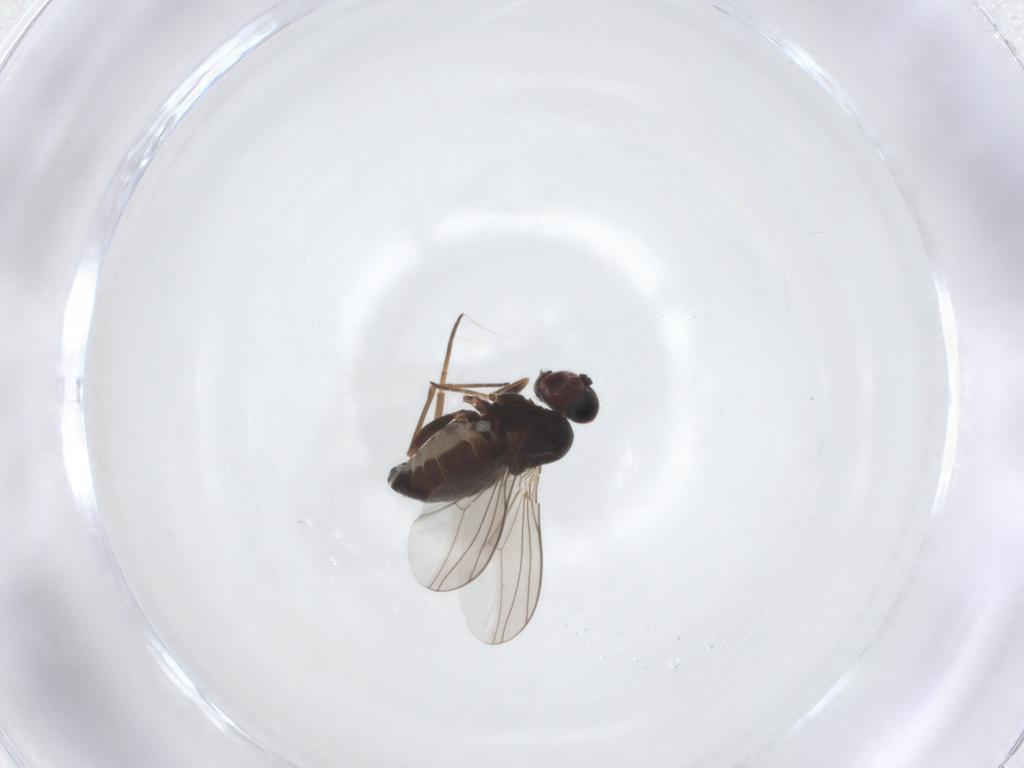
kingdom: Animalia
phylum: Arthropoda
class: Insecta
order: Diptera
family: Dolichopodidae
